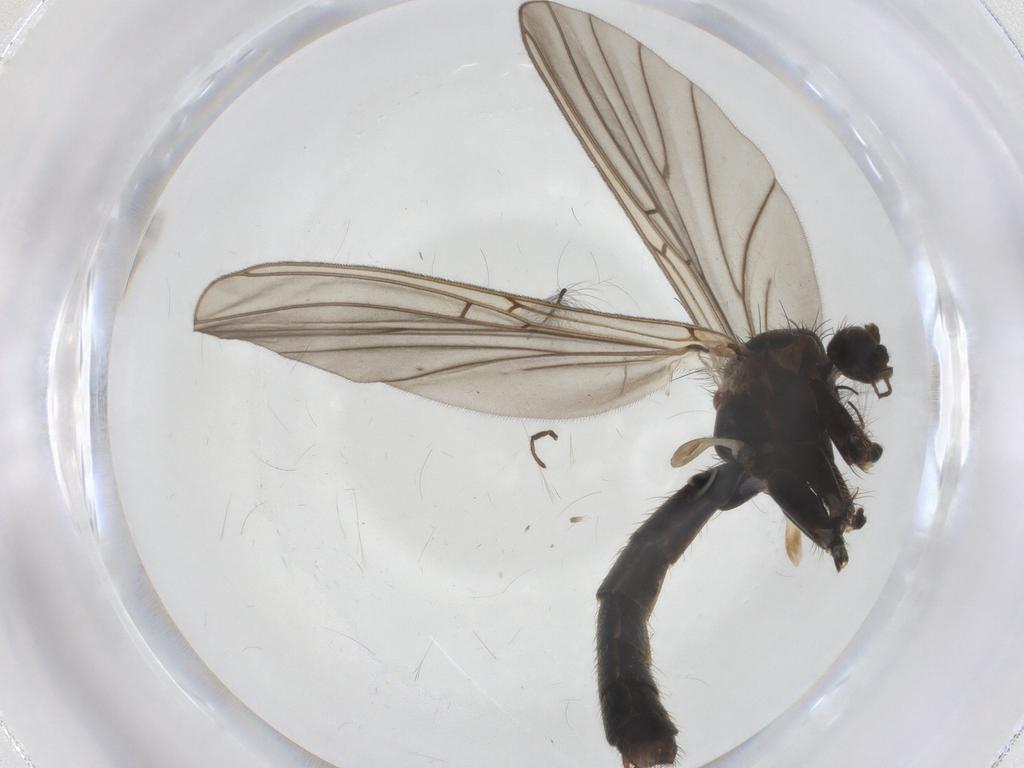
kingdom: Animalia
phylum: Arthropoda
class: Insecta
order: Diptera
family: Mycetophilidae
